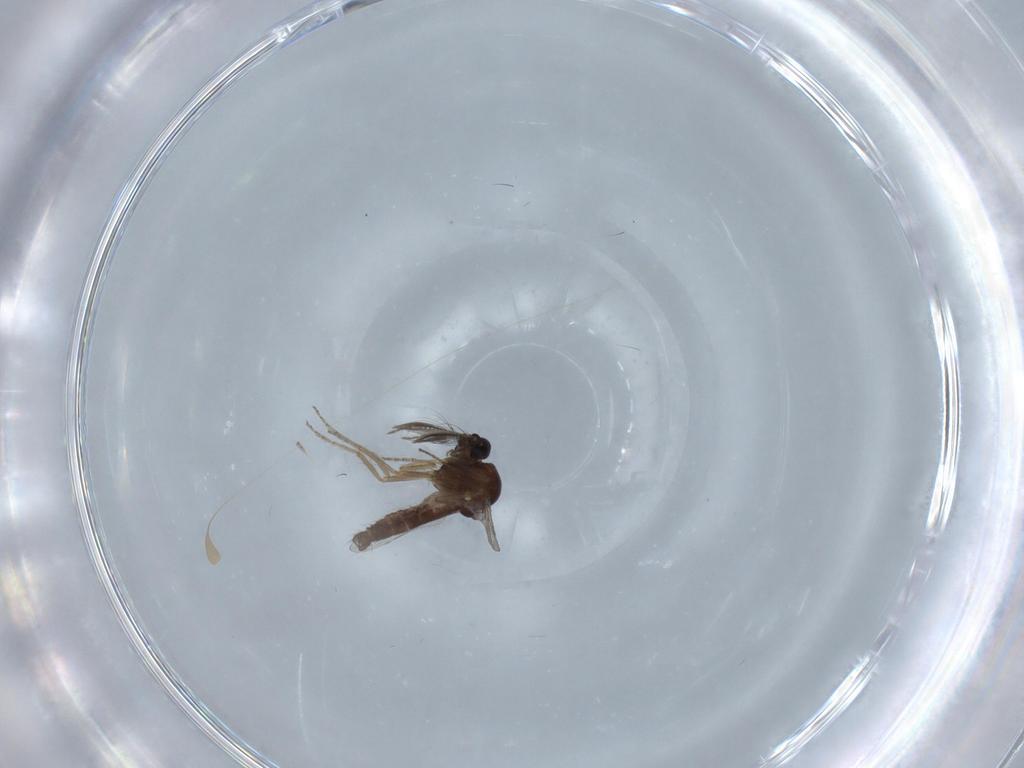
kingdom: Animalia
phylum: Arthropoda
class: Insecta
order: Diptera
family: Ceratopogonidae
